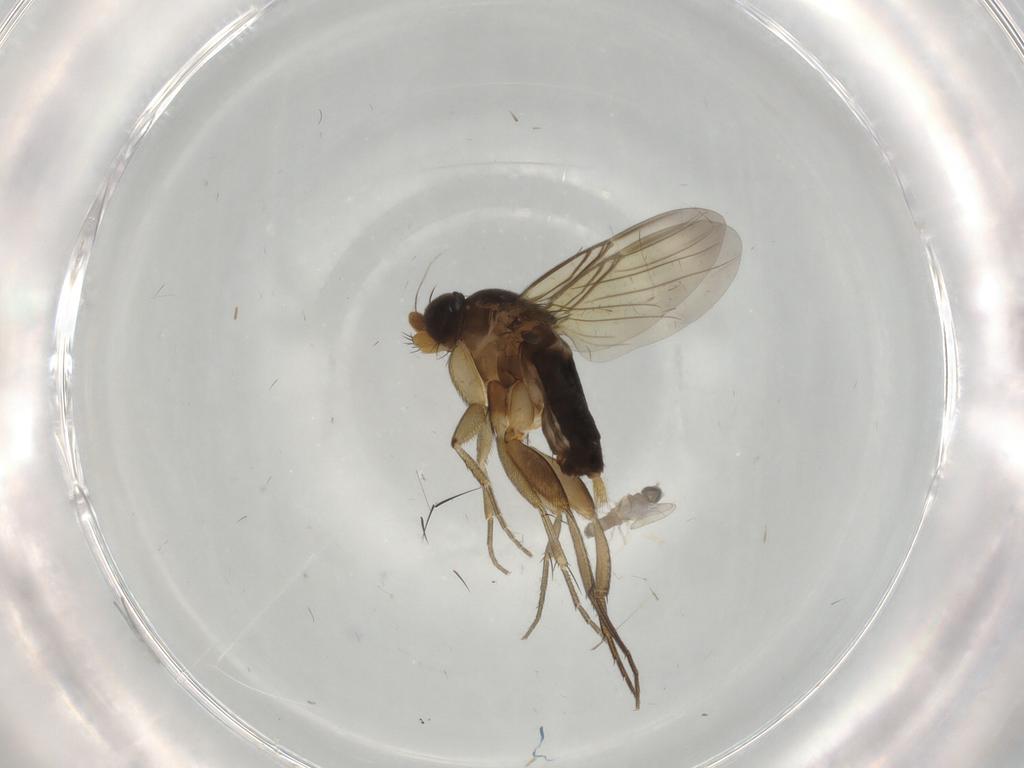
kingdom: Animalia
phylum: Arthropoda
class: Insecta
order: Diptera
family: Phoridae
